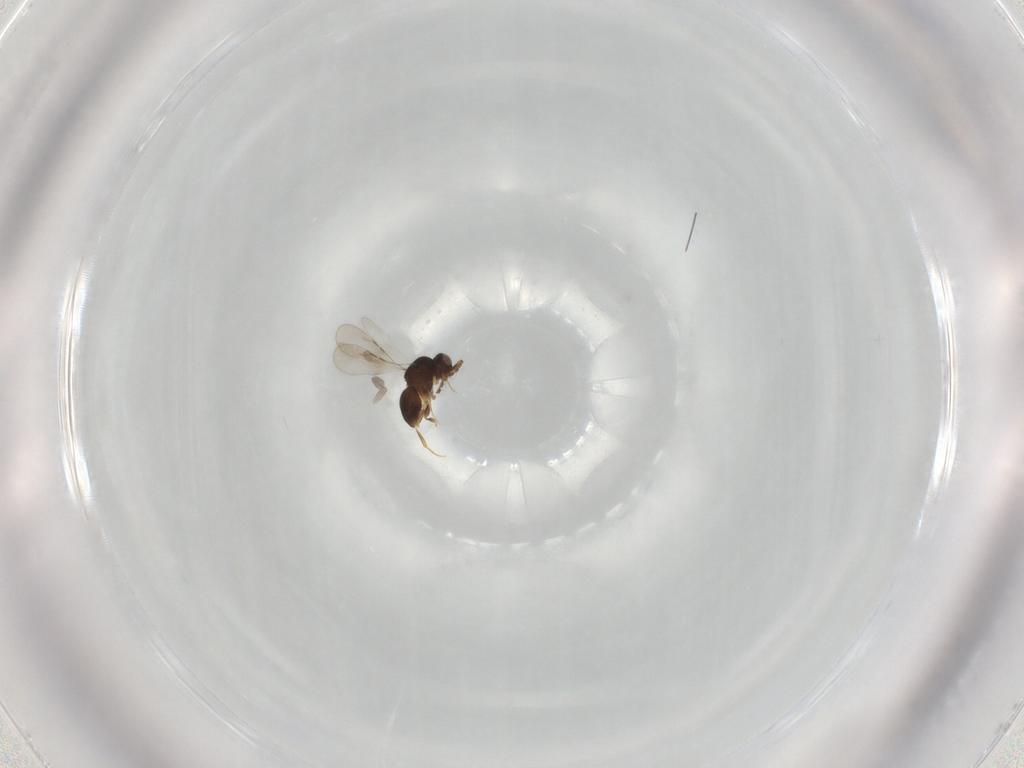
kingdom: Animalia
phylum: Arthropoda
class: Insecta
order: Hymenoptera
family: Ceraphronidae
